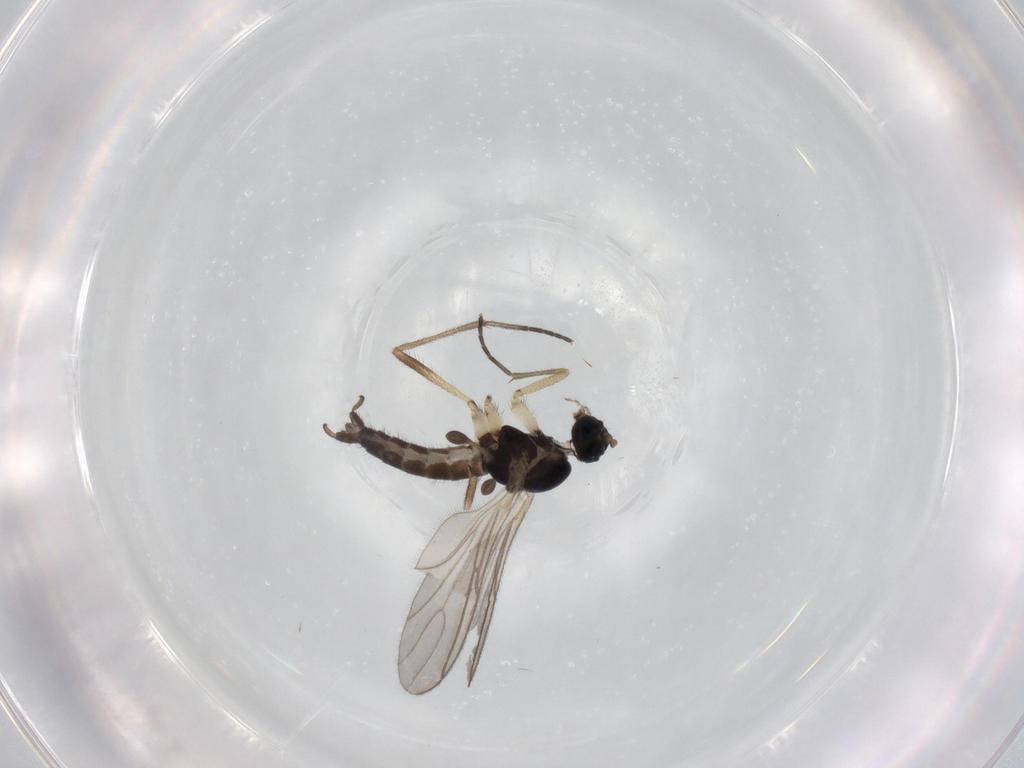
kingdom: Animalia
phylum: Arthropoda
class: Insecta
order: Diptera
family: Sciaridae
